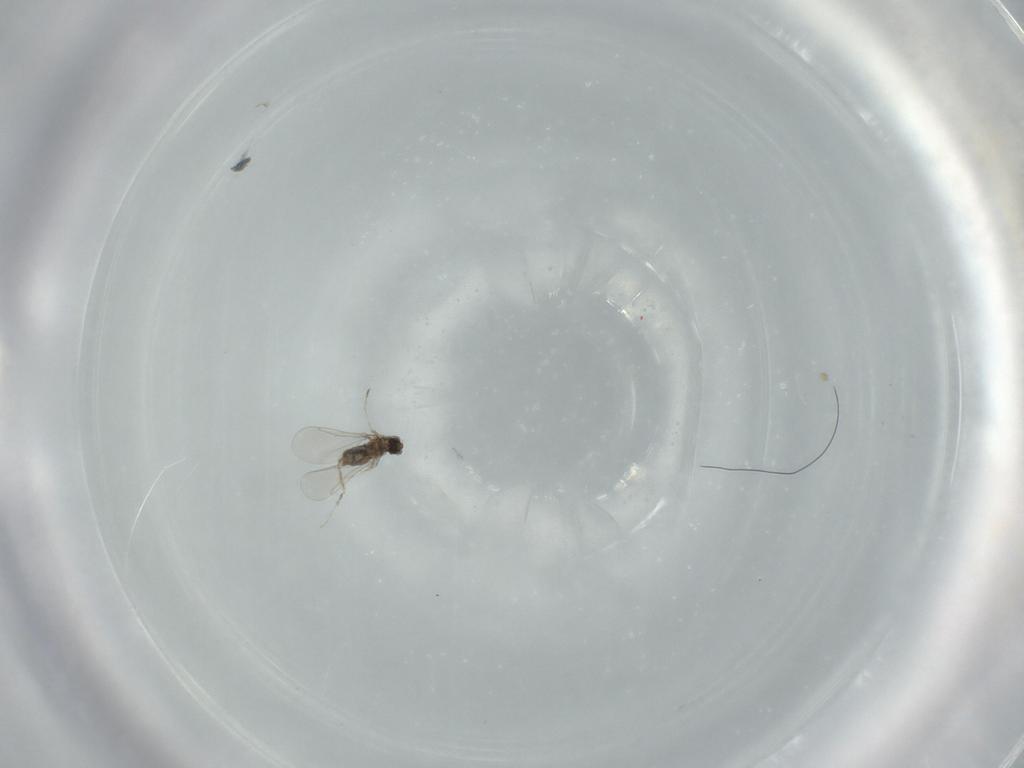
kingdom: Animalia
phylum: Arthropoda
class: Insecta
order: Diptera
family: Cecidomyiidae
